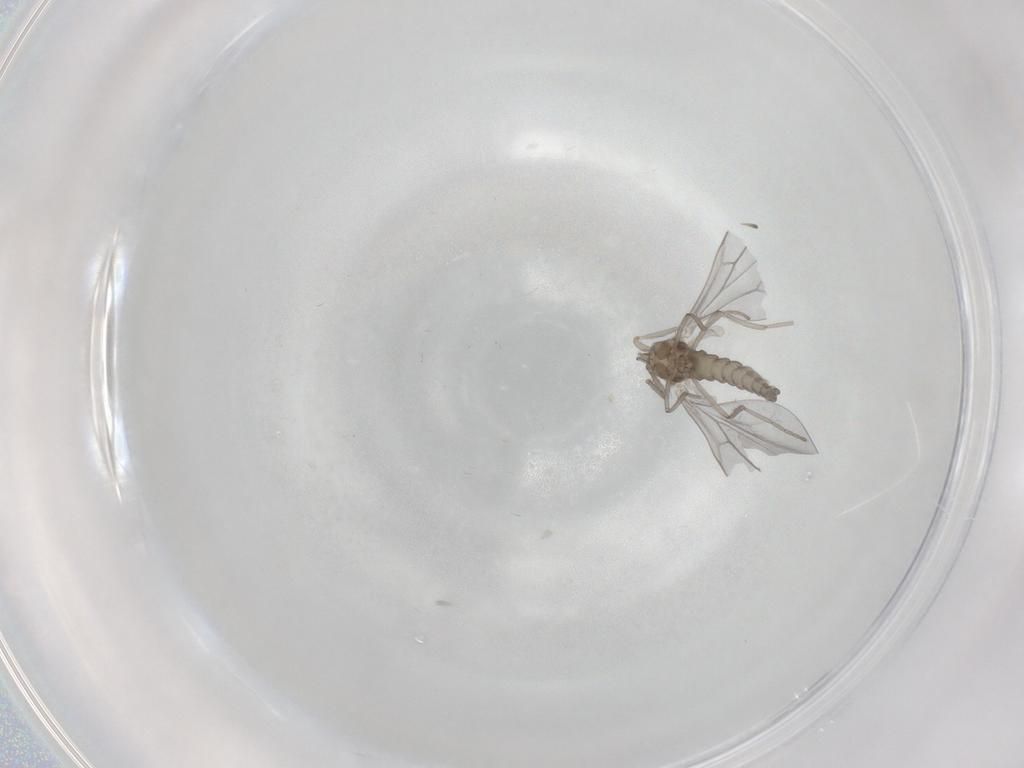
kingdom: Animalia
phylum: Arthropoda
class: Insecta
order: Diptera
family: Cecidomyiidae
